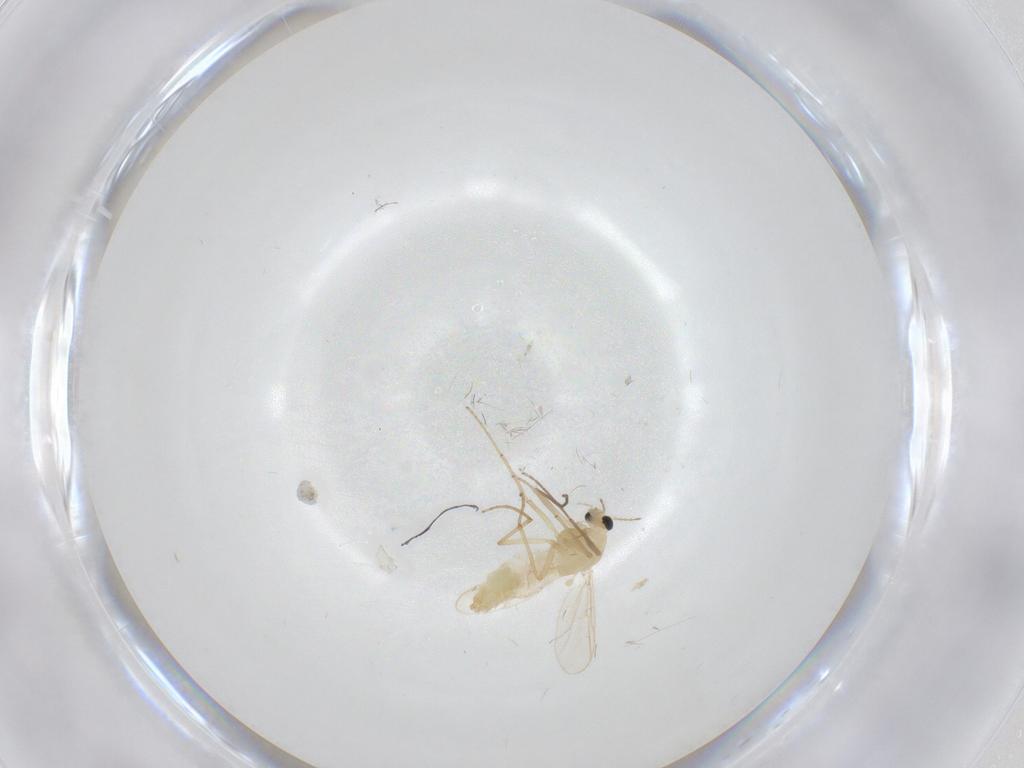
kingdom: Animalia
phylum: Arthropoda
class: Insecta
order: Diptera
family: Chironomidae
